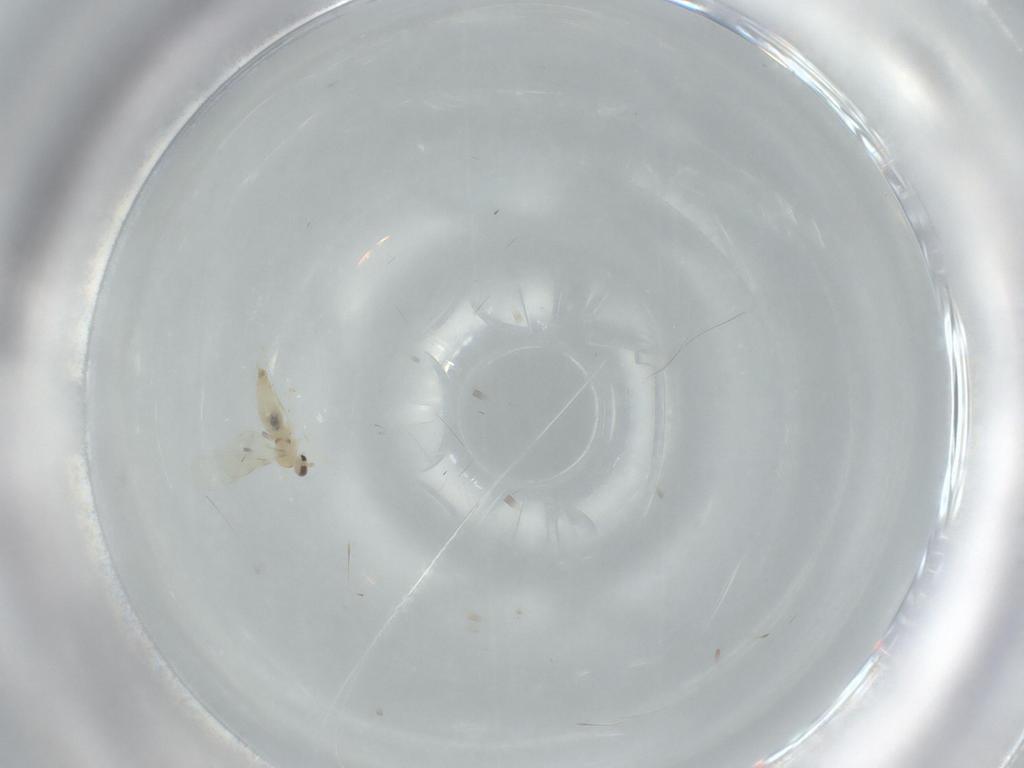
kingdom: Animalia
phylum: Arthropoda
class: Insecta
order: Diptera
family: Cecidomyiidae
